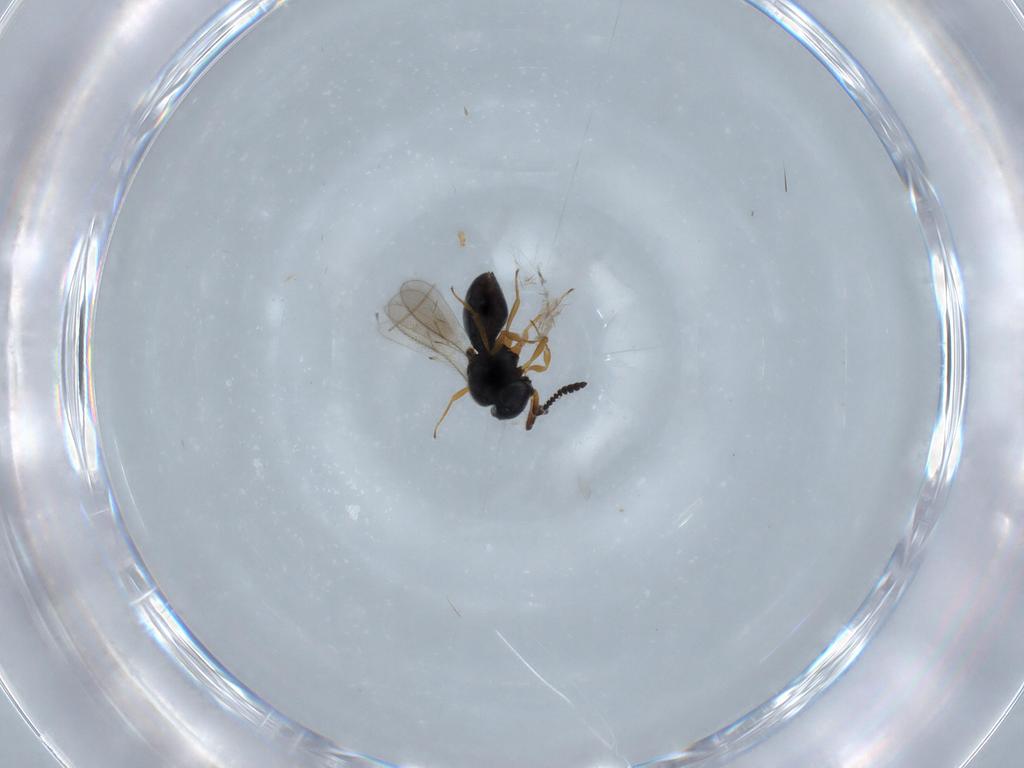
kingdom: Animalia
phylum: Arthropoda
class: Insecta
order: Hymenoptera
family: Scelionidae
